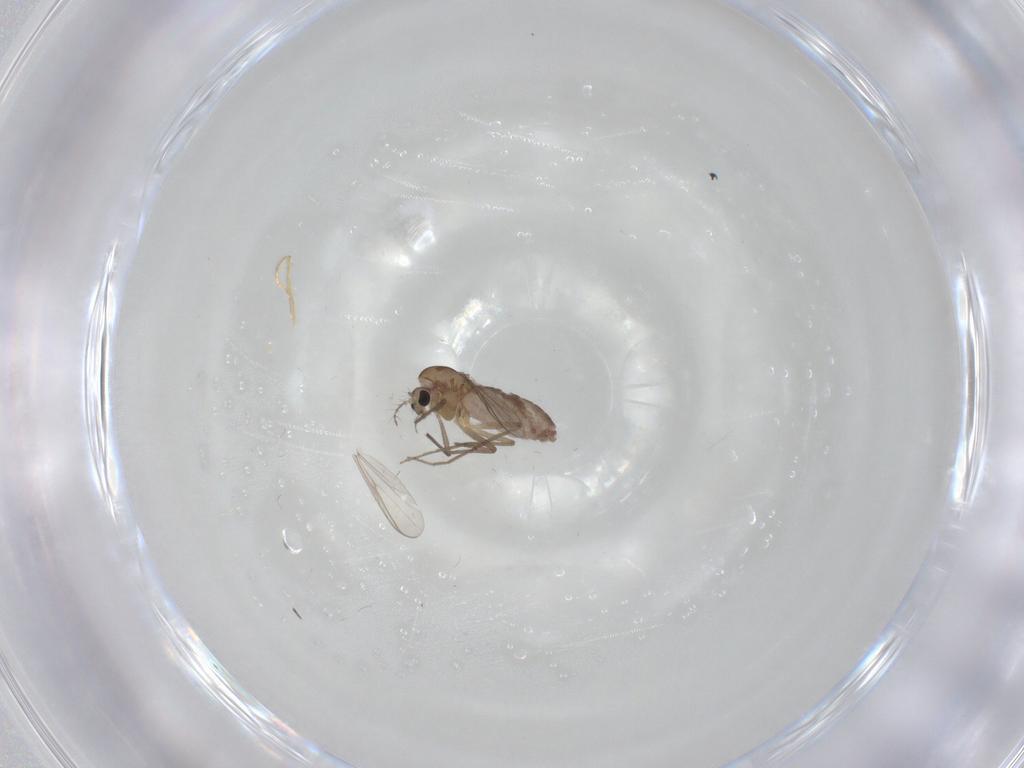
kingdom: Animalia
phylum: Arthropoda
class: Insecta
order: Diptera
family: Chironomidae
